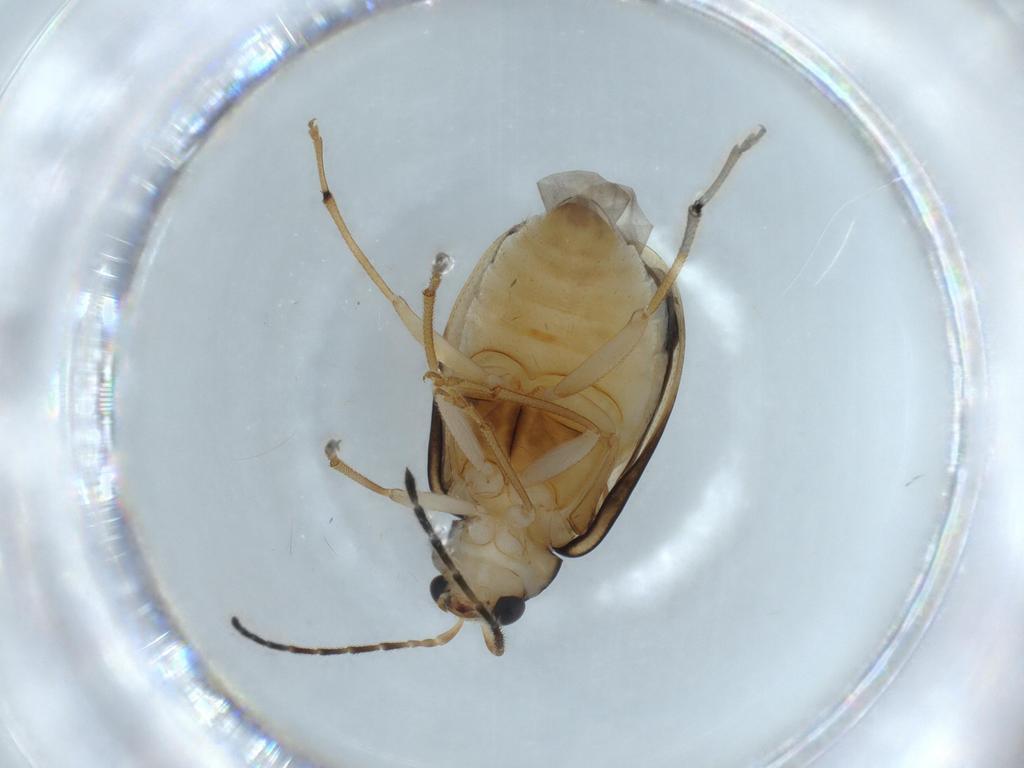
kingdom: Animalia
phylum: Arthropoda
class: Insecta
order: Coleoptera
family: Chrysomelidae
